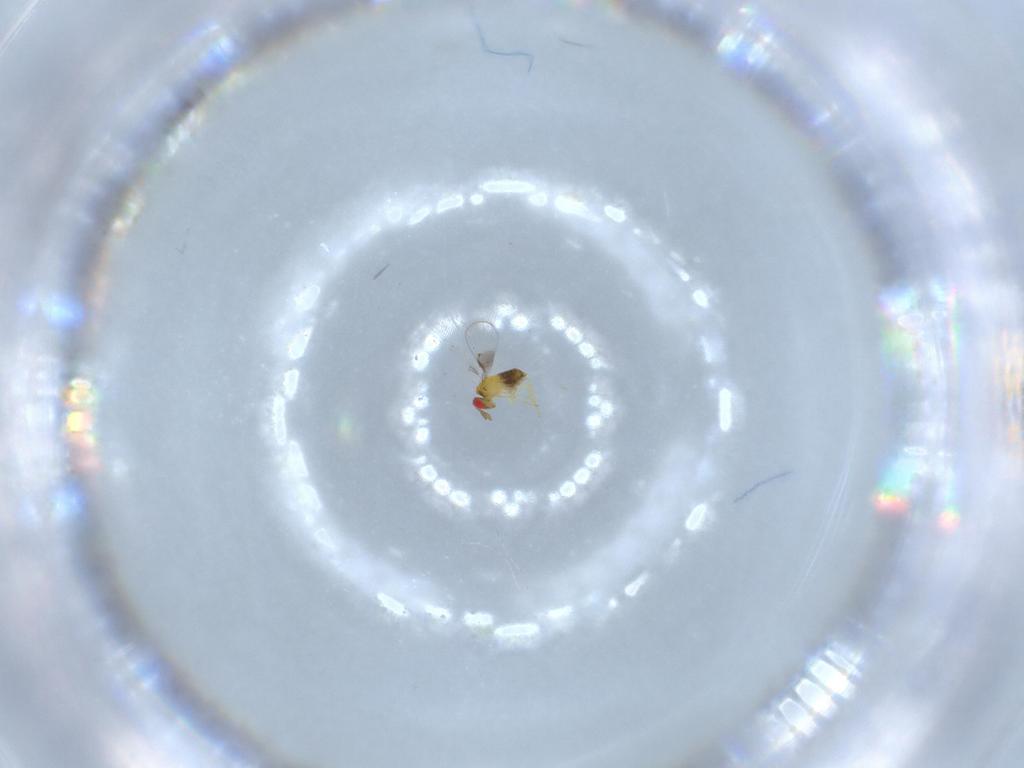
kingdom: Animalia
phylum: Arthropoda
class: Insecta
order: Hymenoptera
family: Trichogrammatidae
